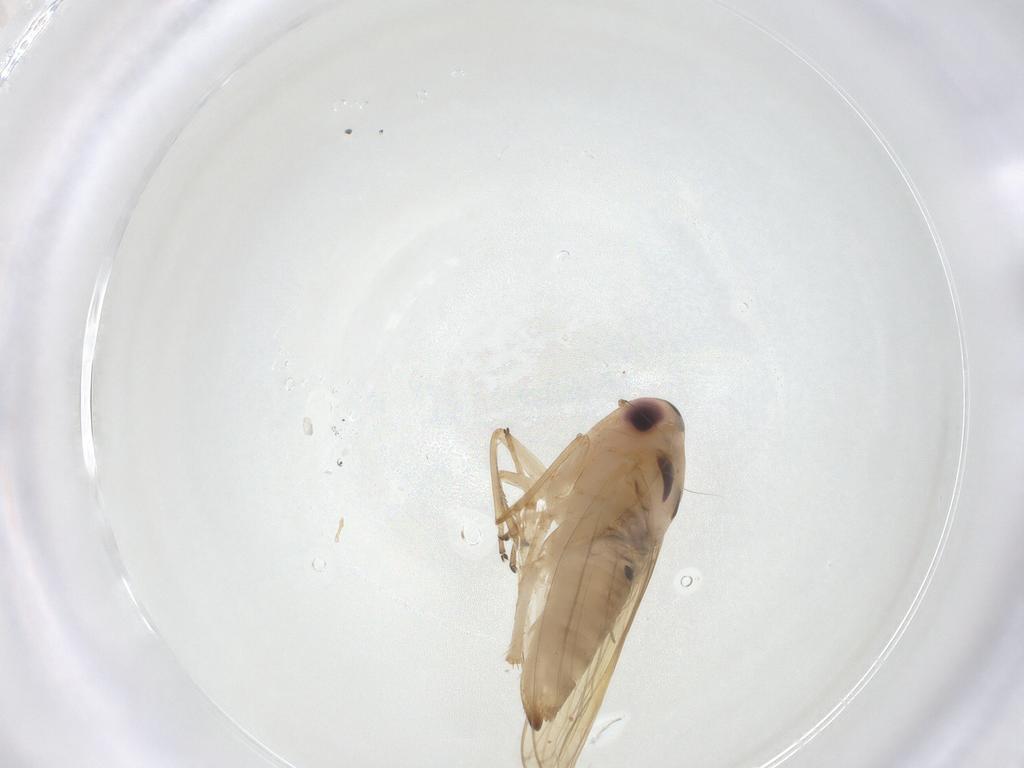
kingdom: Animalia
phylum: Arthropoda
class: Insecta
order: Hemiptera
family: Cicadellidae
